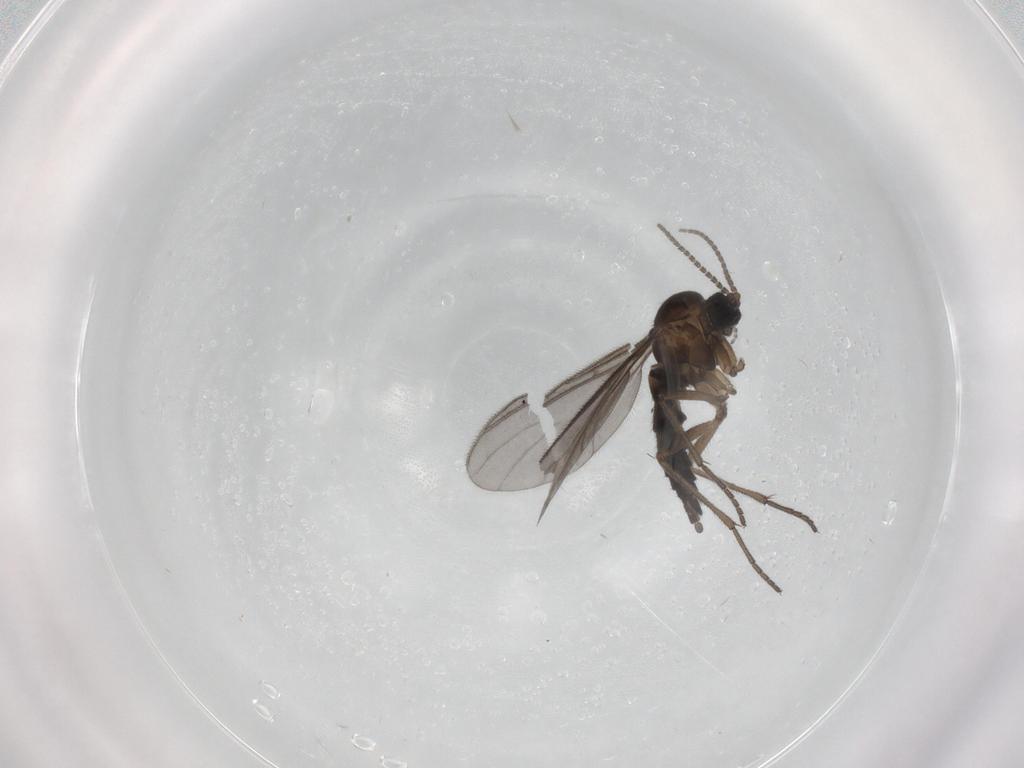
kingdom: Animalia
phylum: Arthropoda
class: Insecta
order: Diptera
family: Sciaridae
